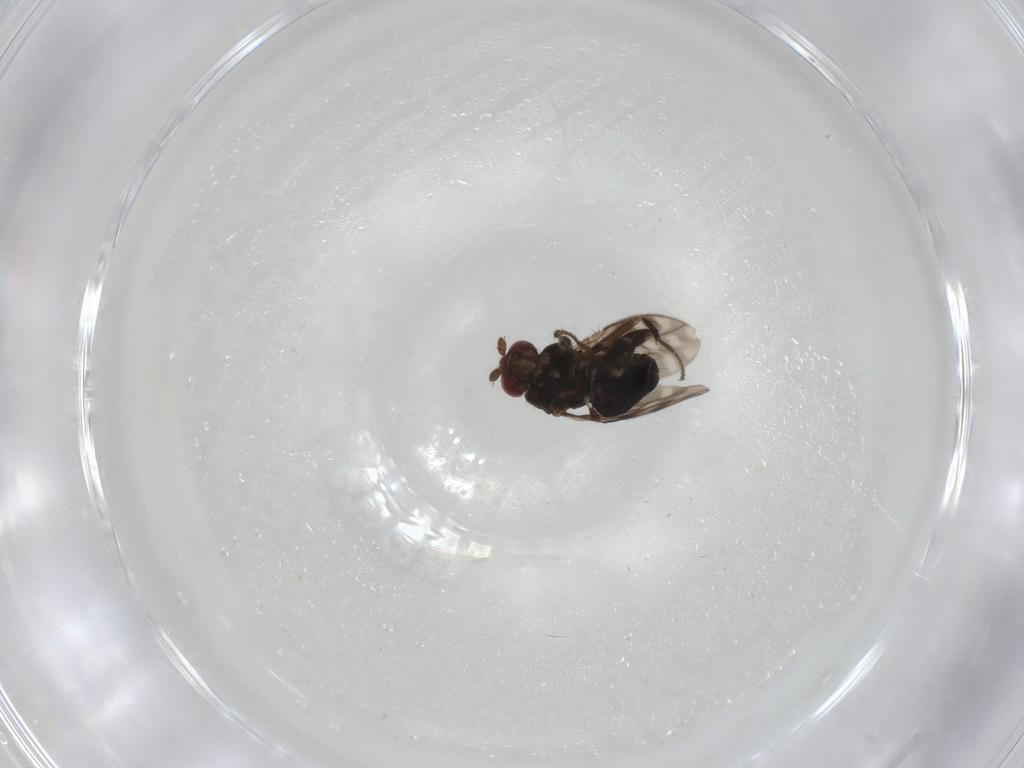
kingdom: Animalia
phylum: Arthropoda
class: Insecta
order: Diptera
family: Sphaeroceridae
